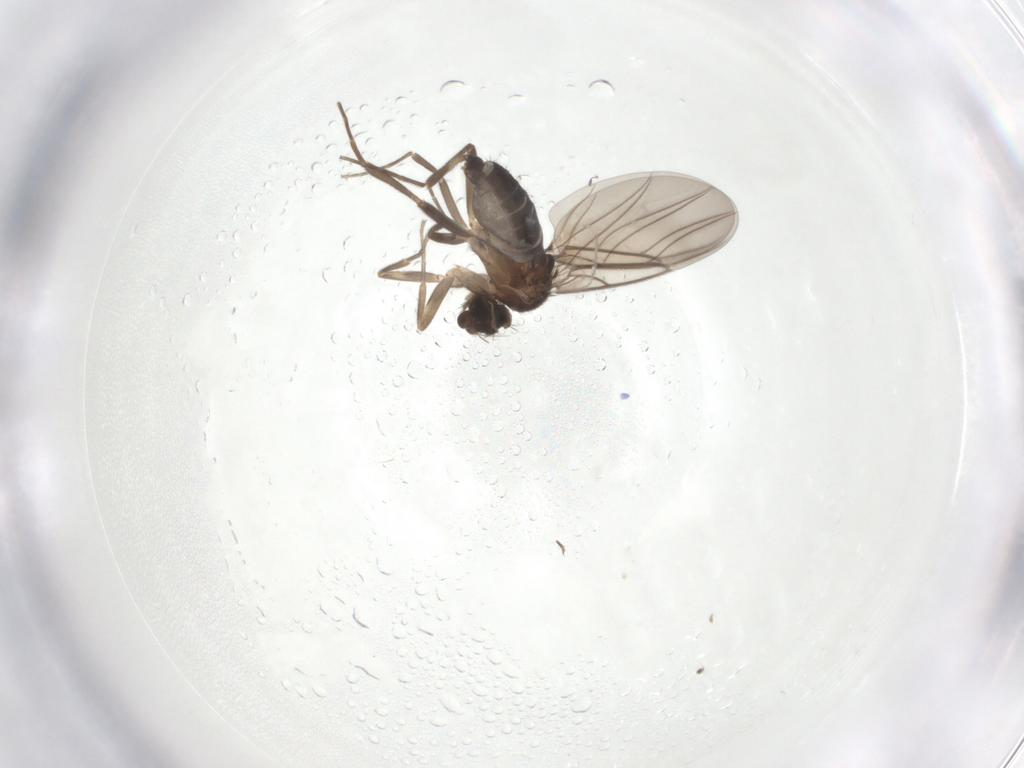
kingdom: Animalia
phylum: Arthropoda
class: Insecta
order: Diptera
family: Phoridae
